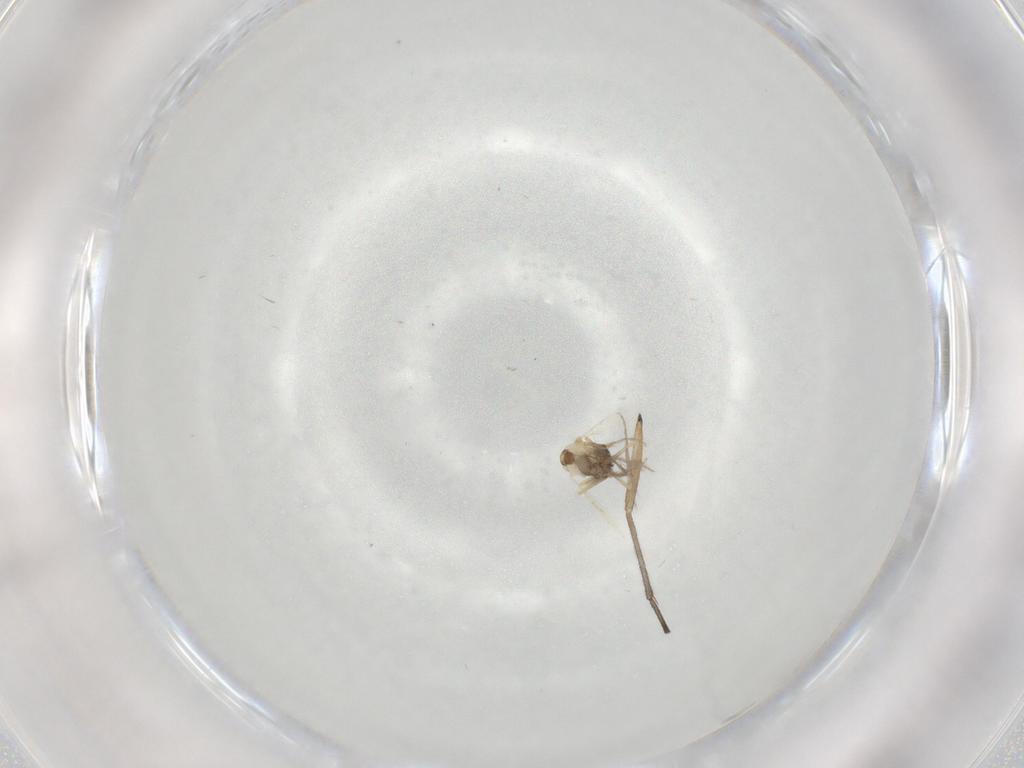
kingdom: Animalia
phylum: Arthropoda
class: Insecta
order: Diptera
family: Ceratopogonidae
